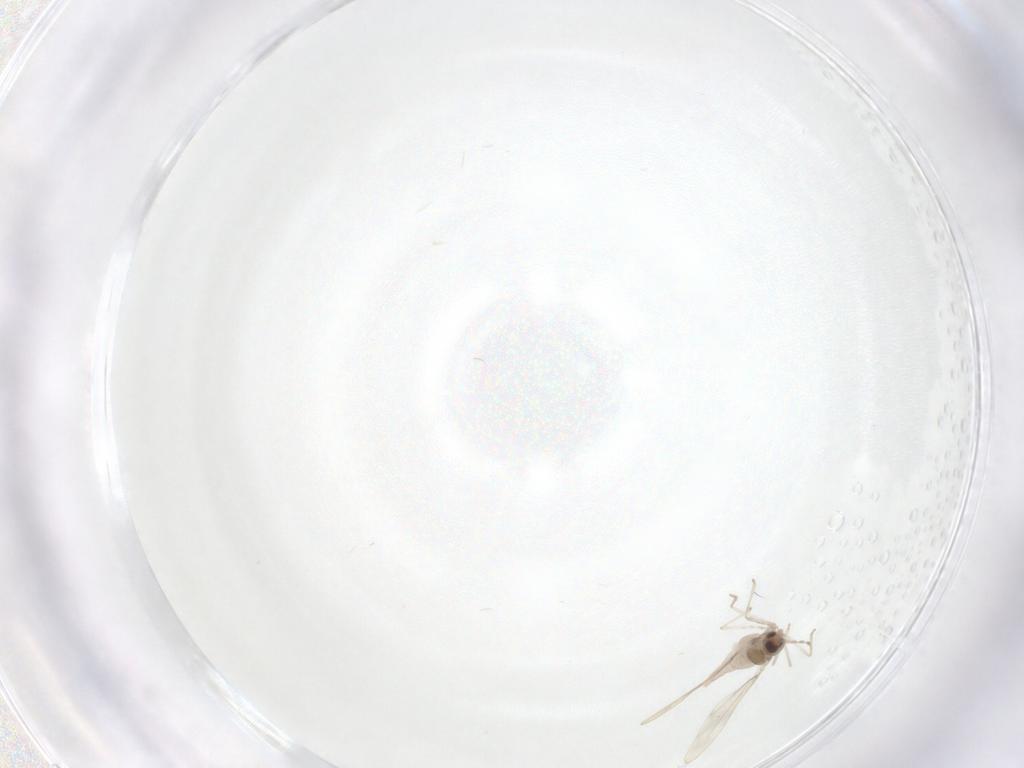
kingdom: Animalia
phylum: Arthropoda
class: Insecta
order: Diptera
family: Cecidomyiidae
